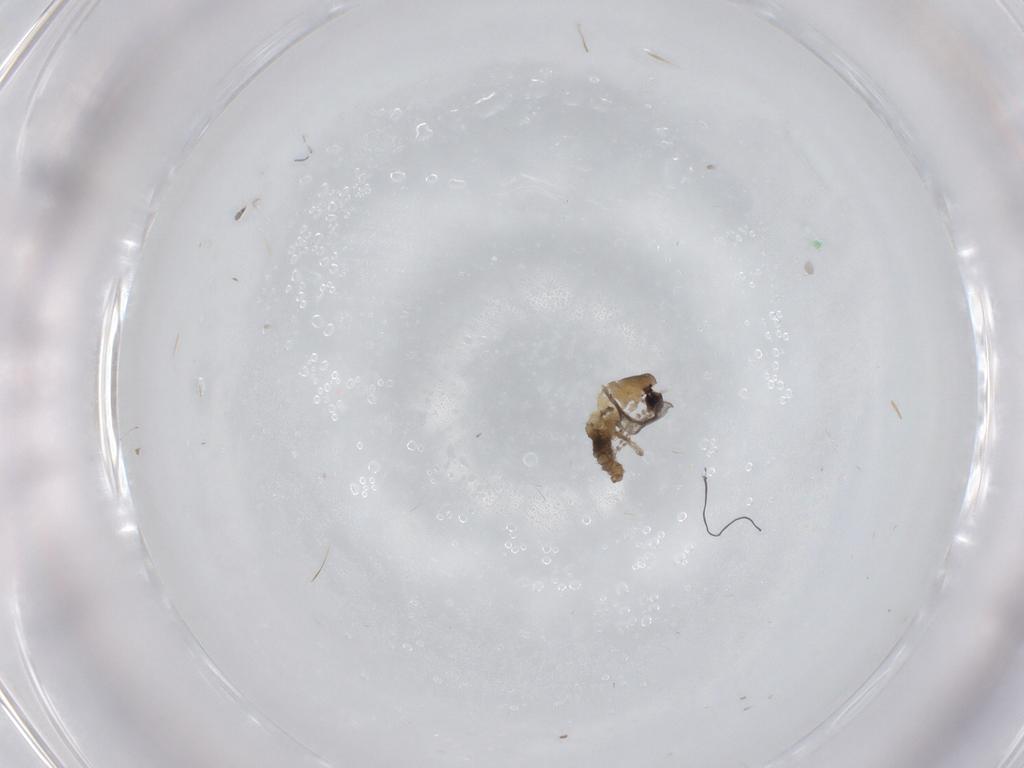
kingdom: Animalia
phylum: Arthropoda
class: Insecta
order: Diptera
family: Cecidomyiidae
